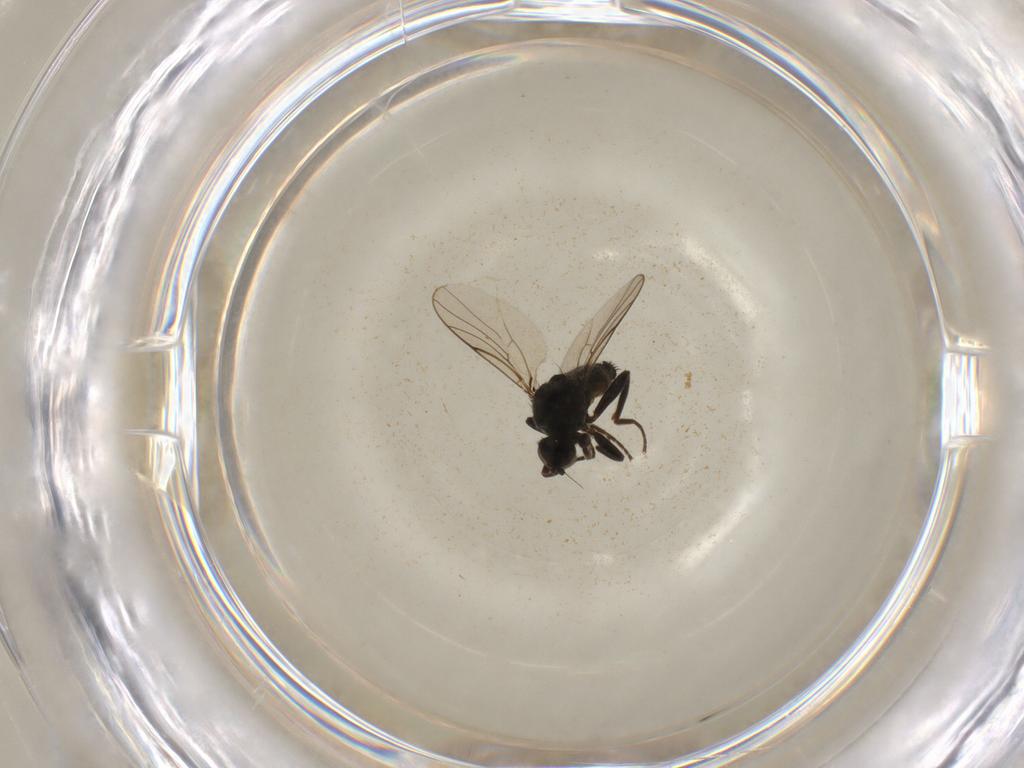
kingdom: Animalia
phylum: Arthropoda
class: Insecta
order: Diptera
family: Hybotidae
